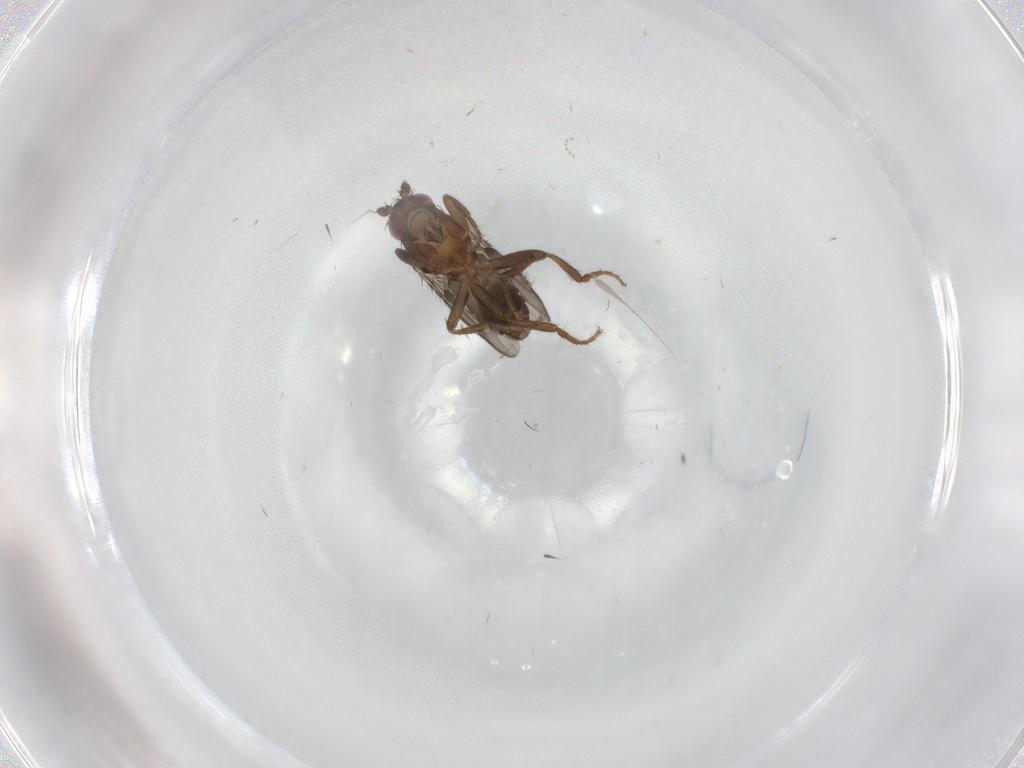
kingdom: Animalia
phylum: Arthropoda
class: Insecta
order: Diptera
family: Cecidomyiidae
